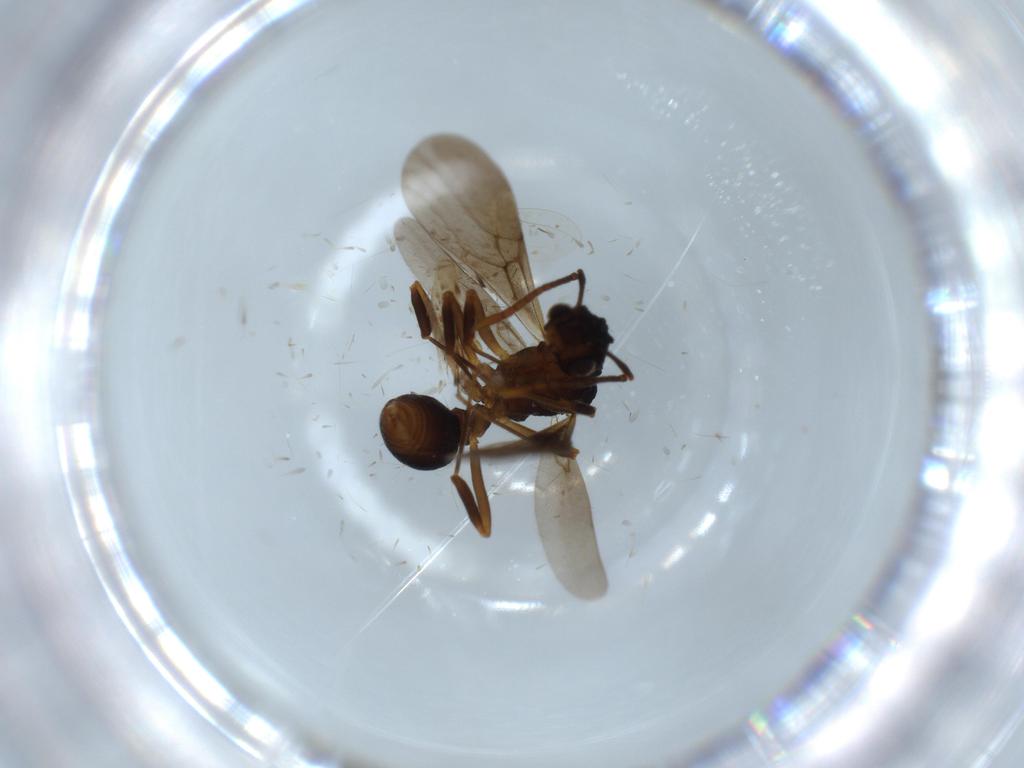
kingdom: Animalia
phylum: Arthropoda
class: Insecta
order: Hymenoptera
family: Formicidae
